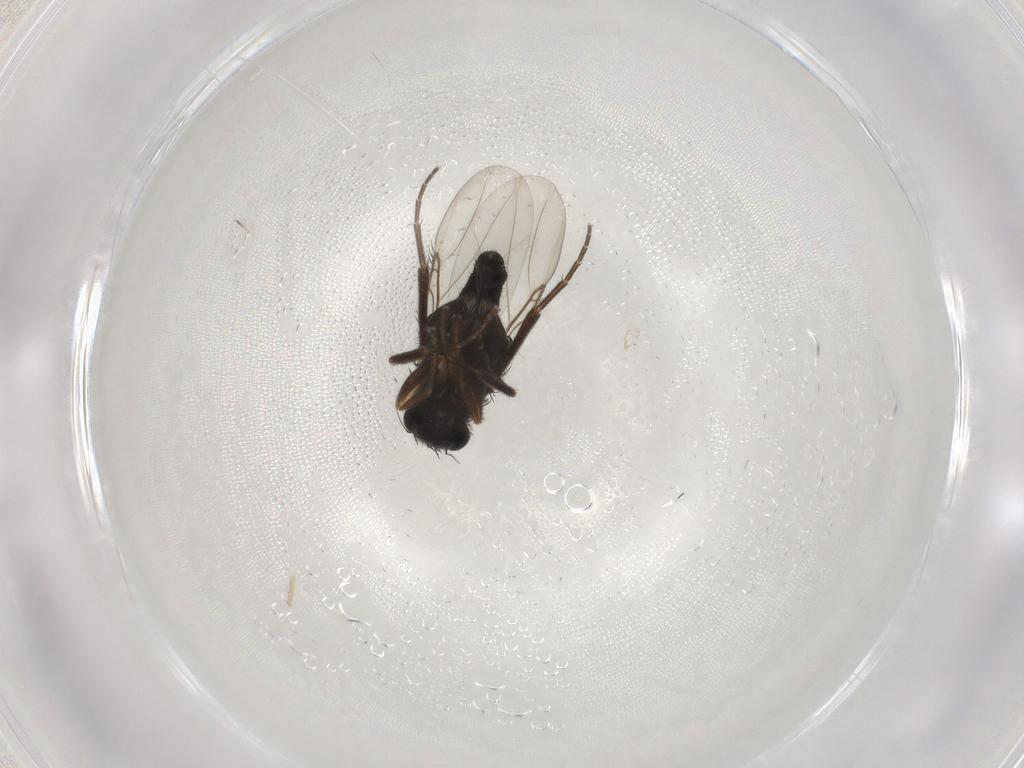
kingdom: Animalia
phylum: Arthropoda
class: Insecta
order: Diptera
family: Phoridae
